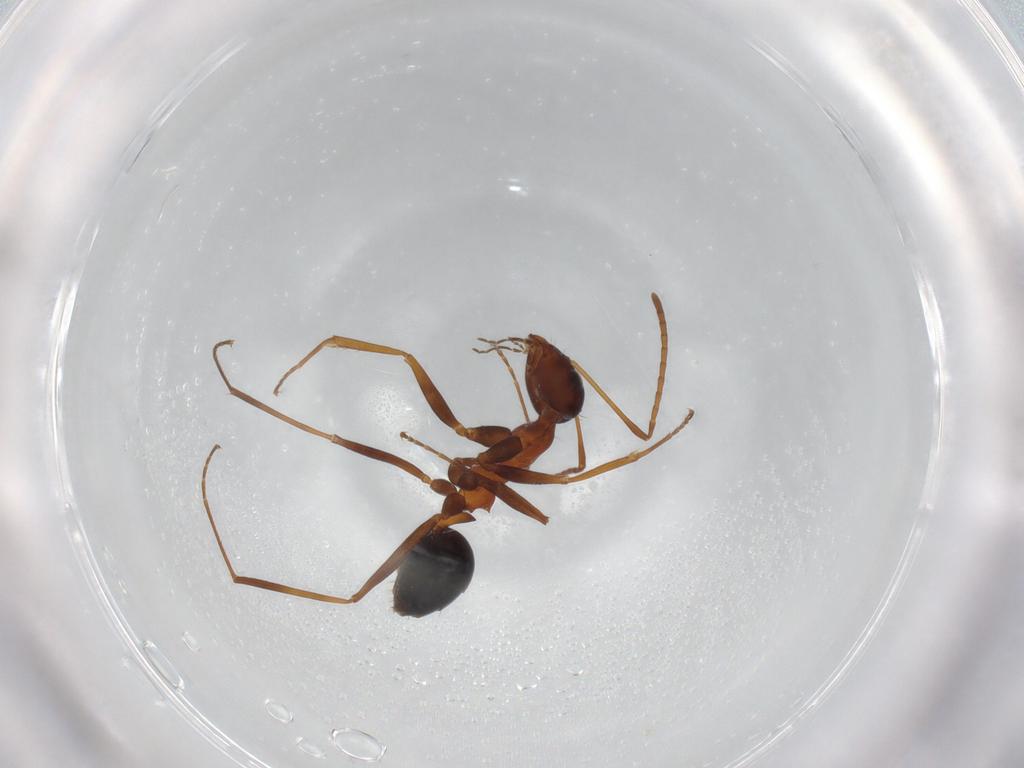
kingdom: Animalia
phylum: Arthropoda
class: Insecta
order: Hymenoptera
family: Formicidae
